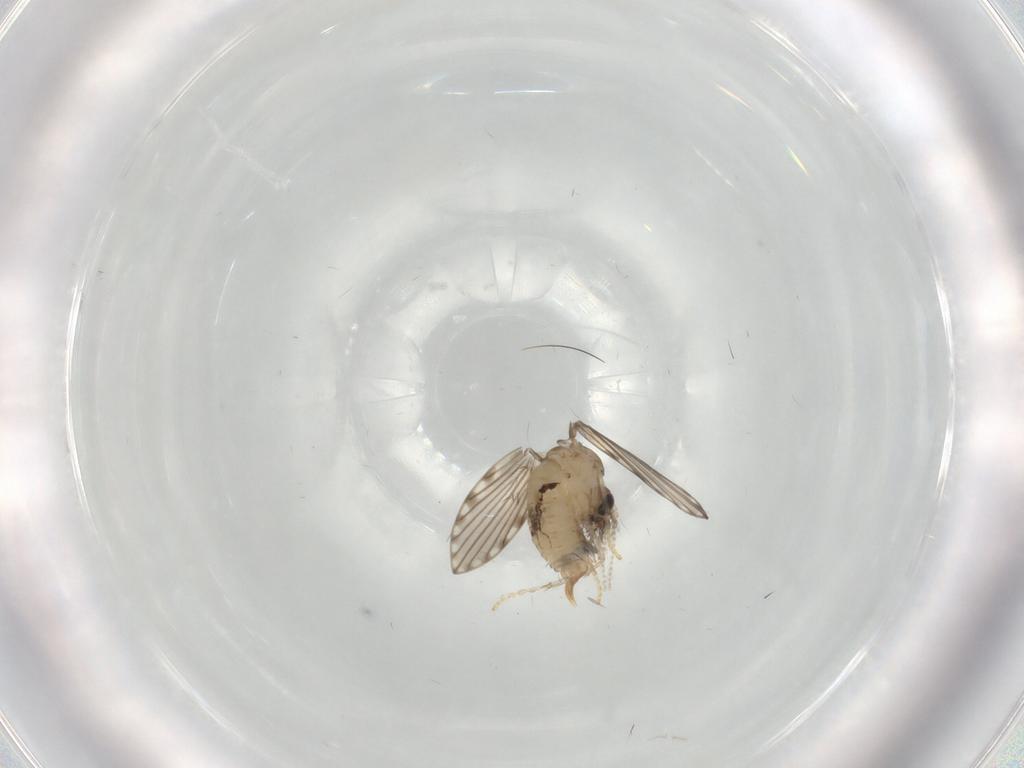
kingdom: Animalia
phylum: Arthropoda
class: Insecta
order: Diptera
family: Psychodidae
